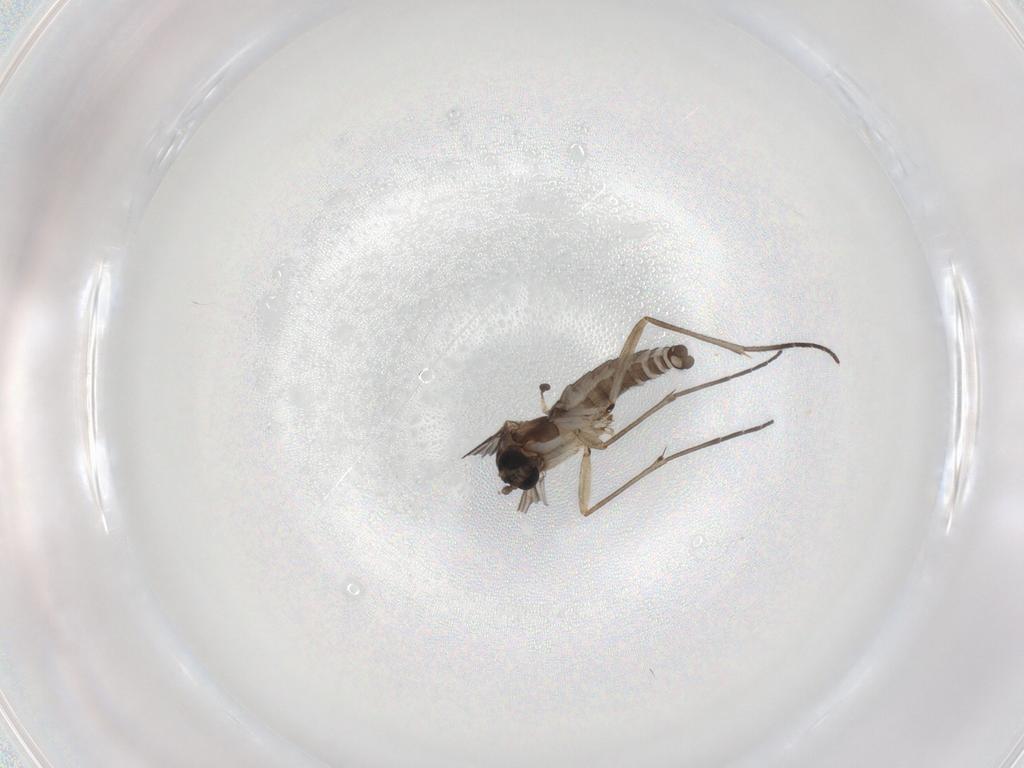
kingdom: Animalia
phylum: Arthropoda
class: Insecta
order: Diptera
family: Sciaridae
